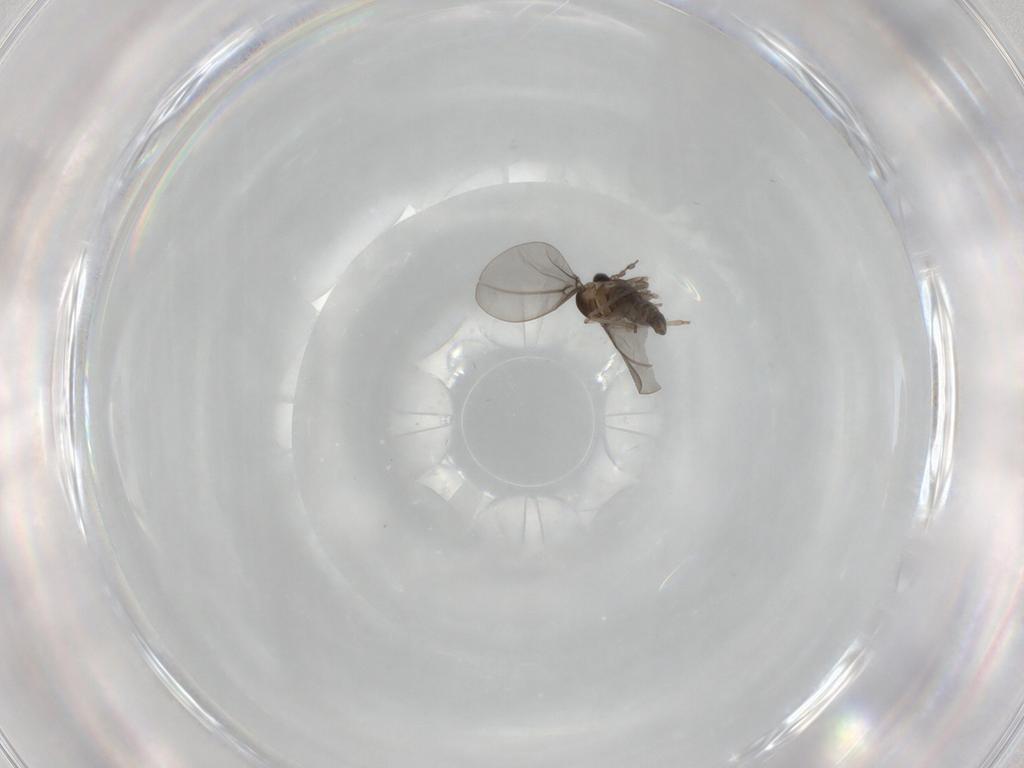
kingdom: Animalia
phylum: Arthropoda
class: Insecta
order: Diptera
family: Cecidomyiidae
